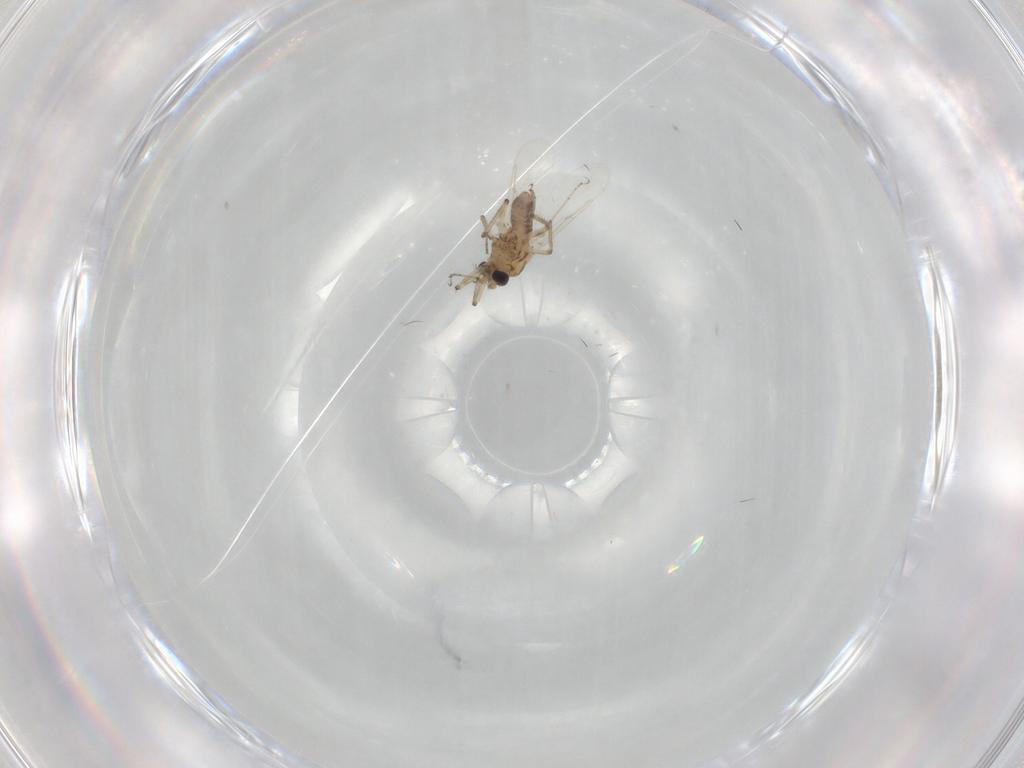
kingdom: Animalia
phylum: Arthropoda
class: Insecta
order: Diptera
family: Ceratopogonidae
